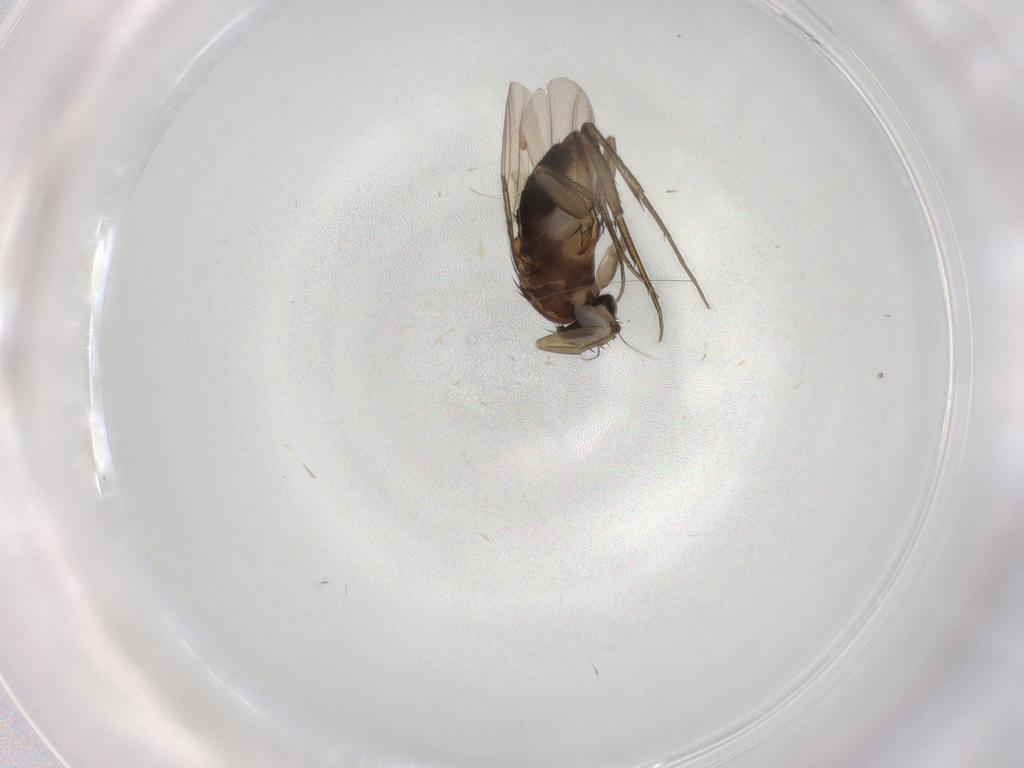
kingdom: Animalia
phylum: Arthropoda
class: Insecta
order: Diptera
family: Phoridae
